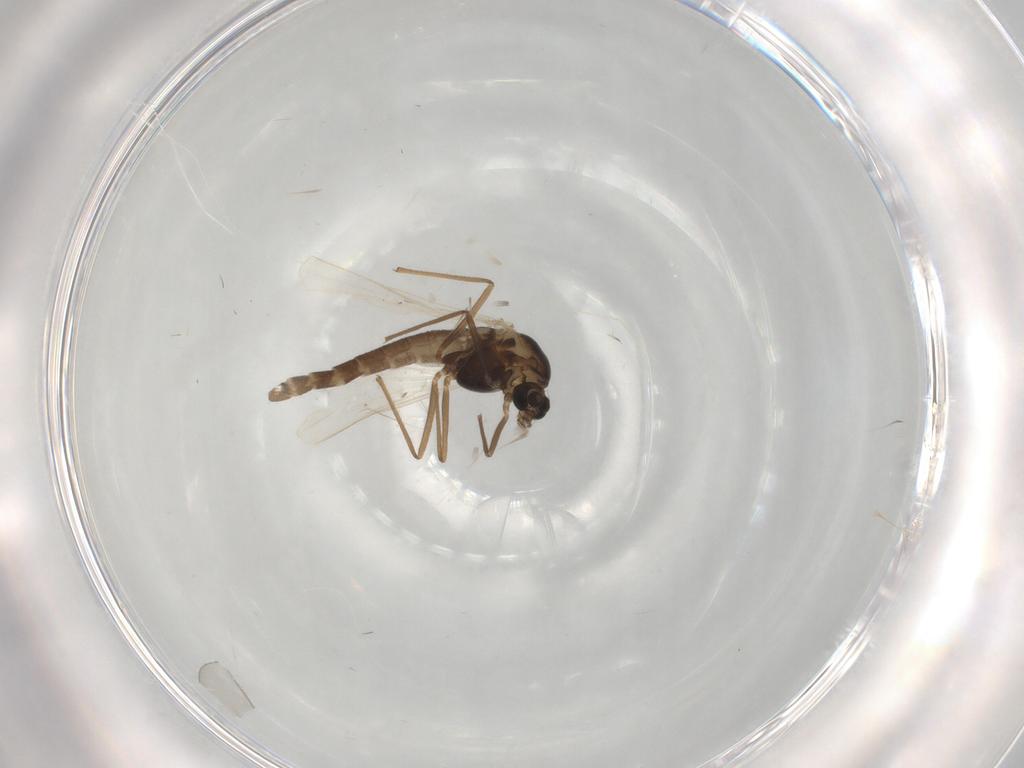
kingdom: Animalia
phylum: Arthropoda
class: Insecta
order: Diptera
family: Chironomidae
